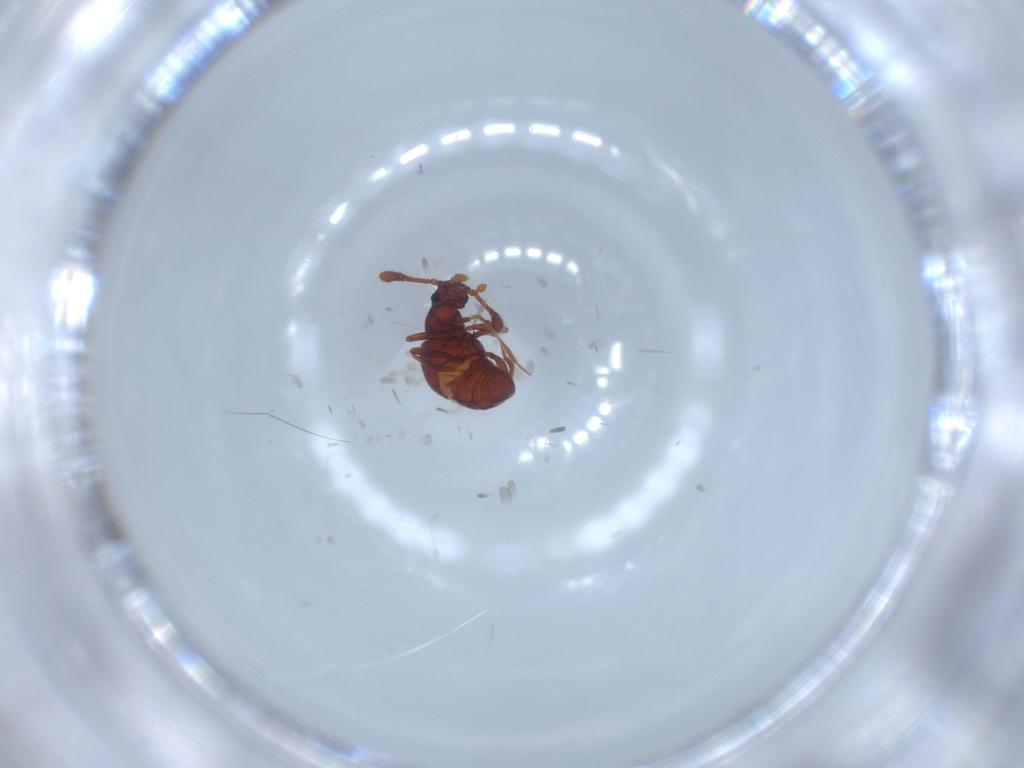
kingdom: Animalia
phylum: Arthropoda
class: Insecta
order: Coleoptera
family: Staphylinidae
